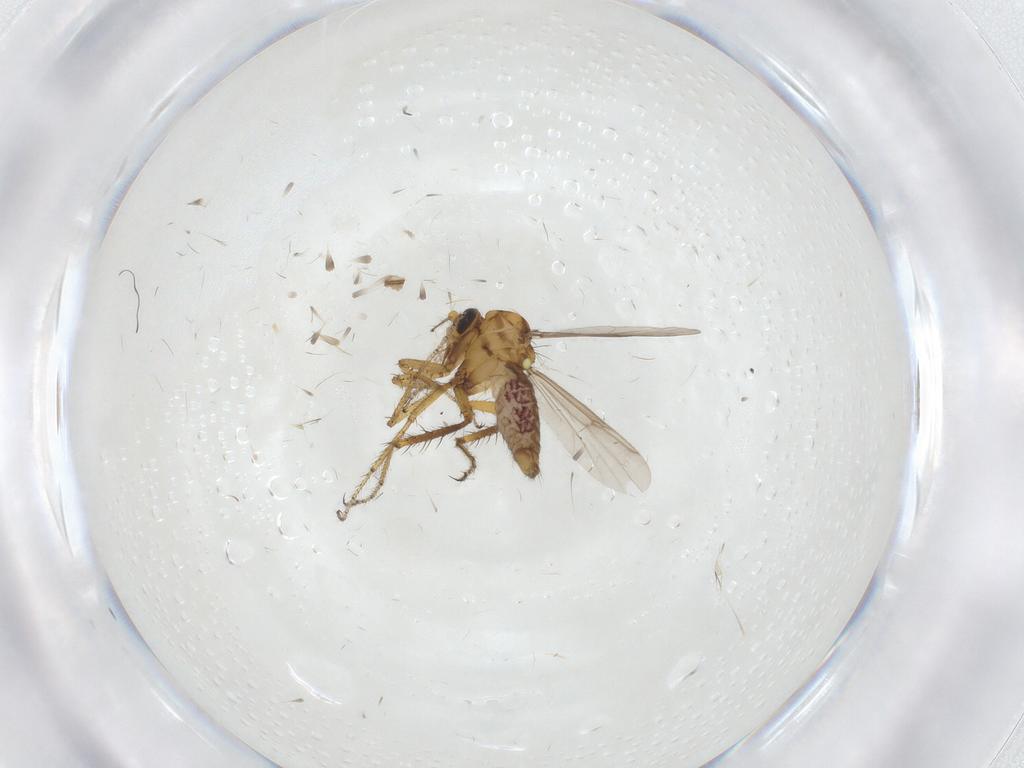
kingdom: Animalia
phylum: Arthropoda
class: Insecta
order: Diptera
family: Ceratopogonidae
